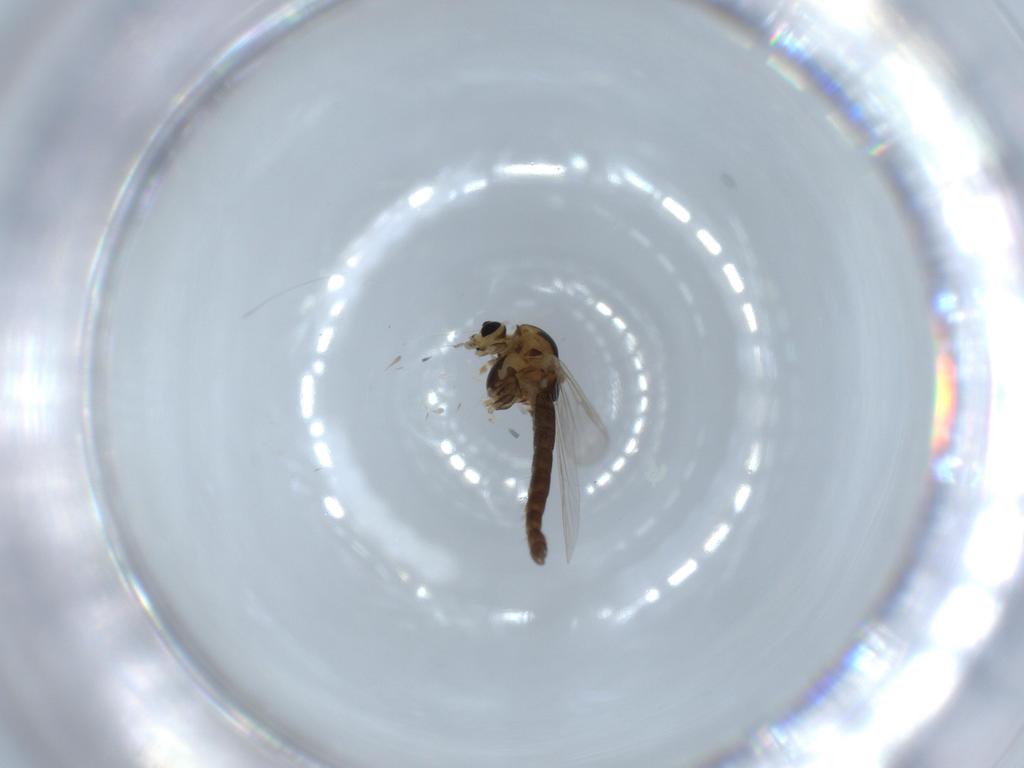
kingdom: Animalia
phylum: Arthropoda
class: Insecta
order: Diptera
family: Chironomidae
